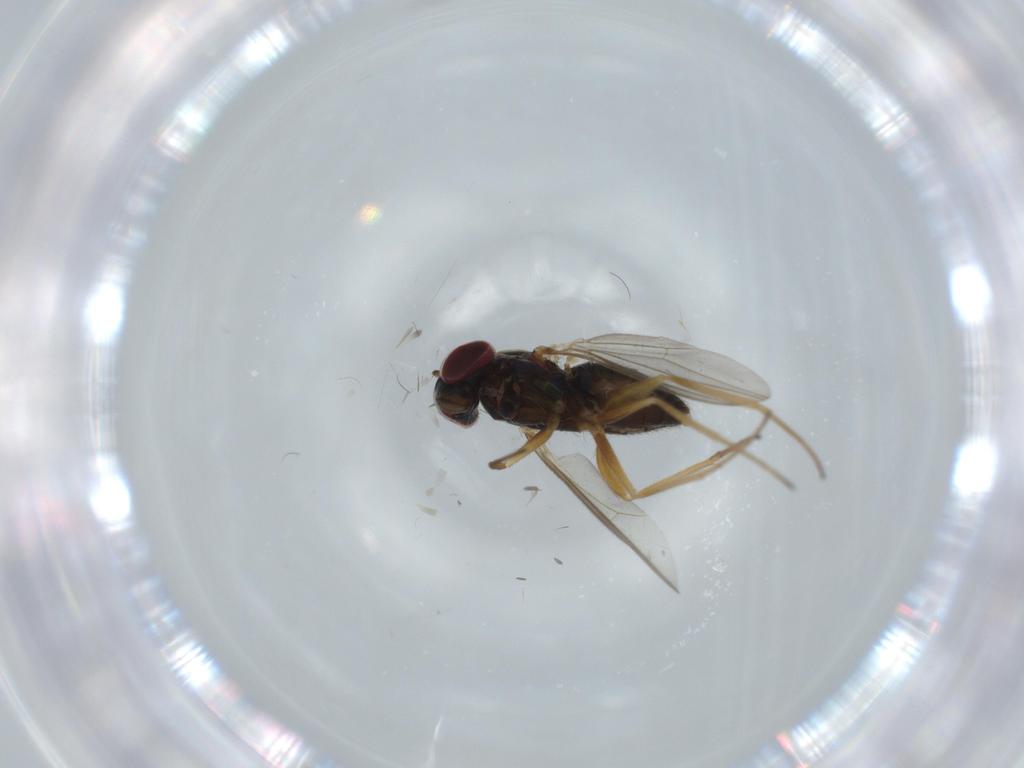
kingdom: Animalia
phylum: Arthropoda
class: Insecta
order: Diptera
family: Dolichopodidae
